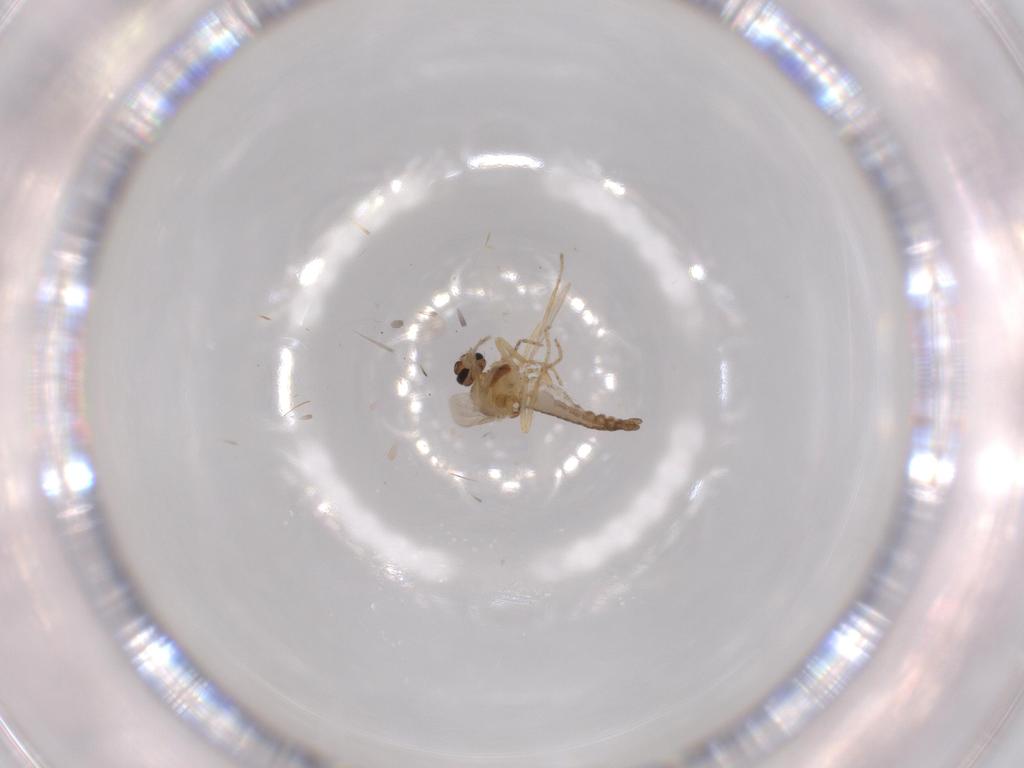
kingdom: Animalia
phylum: Arthropoda
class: Insecta
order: Diptera
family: Ceratopogonidae
